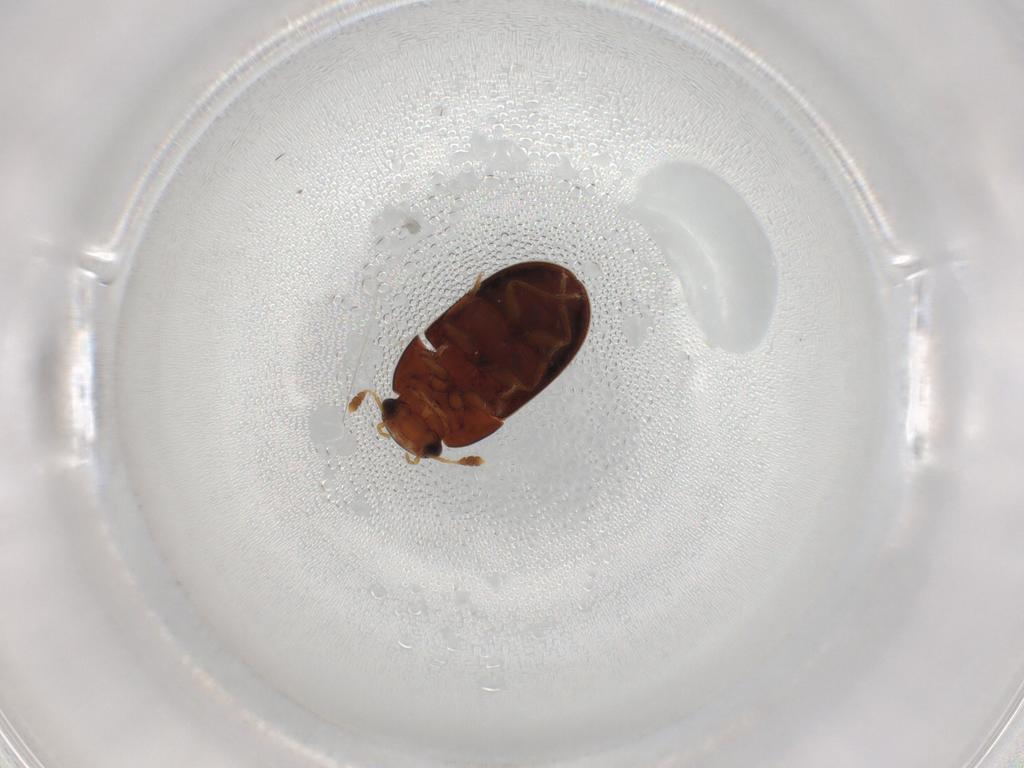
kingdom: Animalia
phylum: Arthropoda
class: Insecta
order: Coleoptera
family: Hydrophilidae
